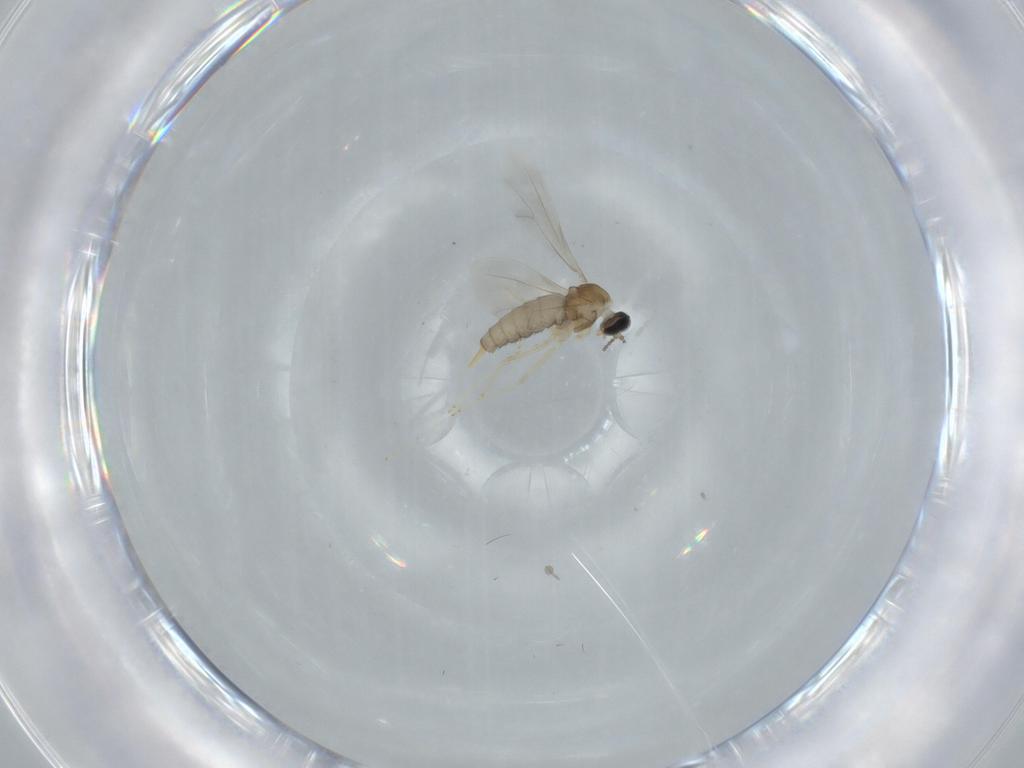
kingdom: Animalia
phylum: Arthropoda
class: Insecta
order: Diptera
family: Cecidomyiidae
